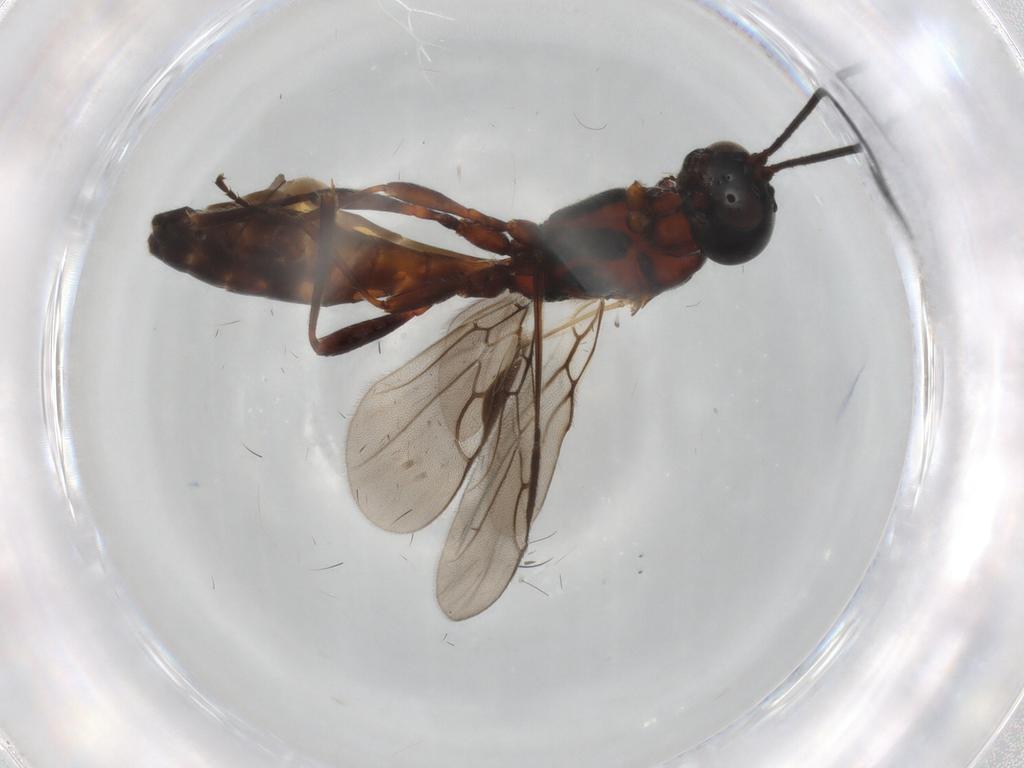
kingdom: Animalia
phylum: Arthropoda
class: Insecta
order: Hymenoptera
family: Braconidae
